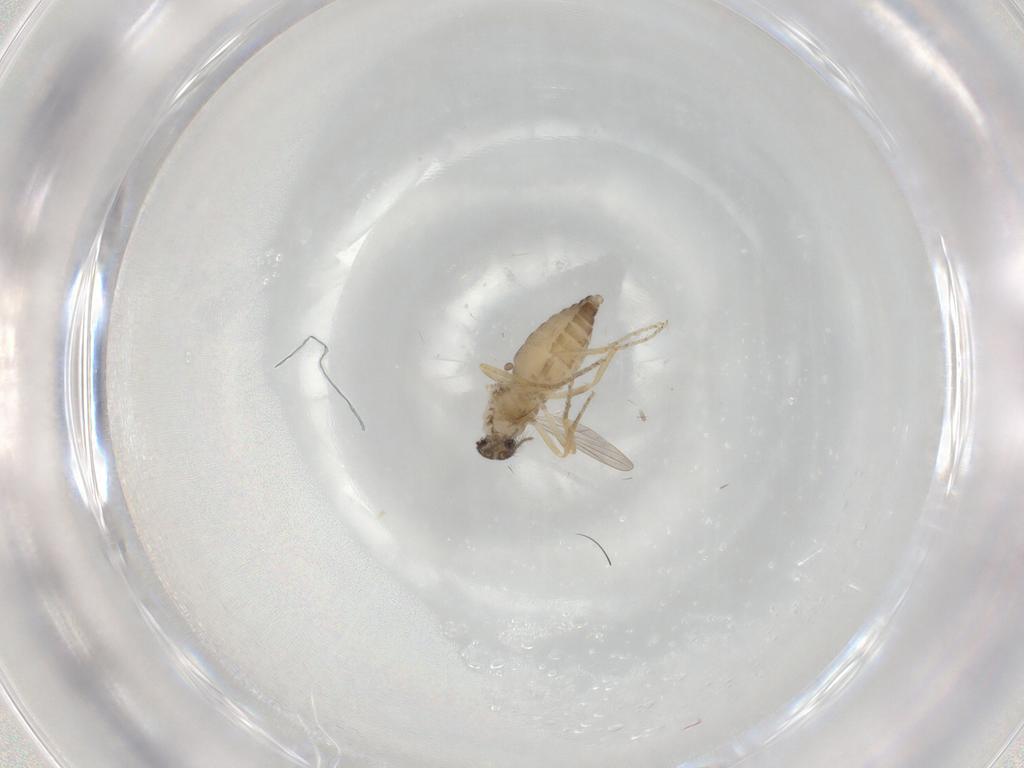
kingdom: Animalia
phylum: Arthropoda
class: Insecta
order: Diptera
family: Ceratopogonidae
